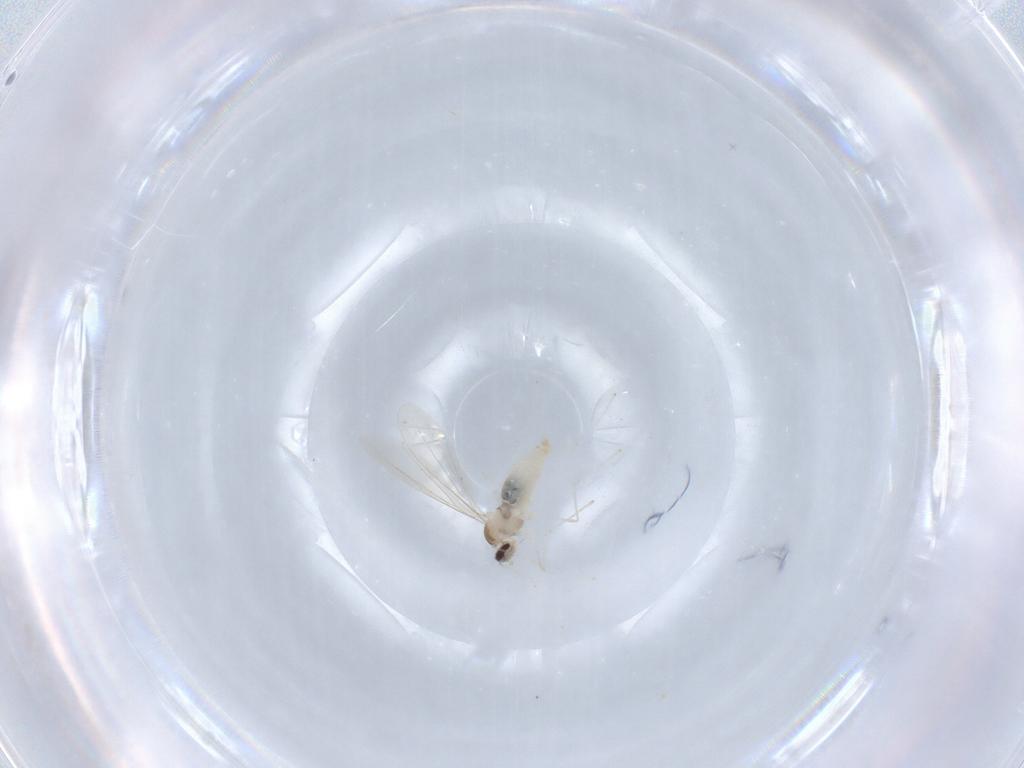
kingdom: Animalia
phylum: Arthropoda
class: Insecta
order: Diptera
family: Cecidomyiidae
